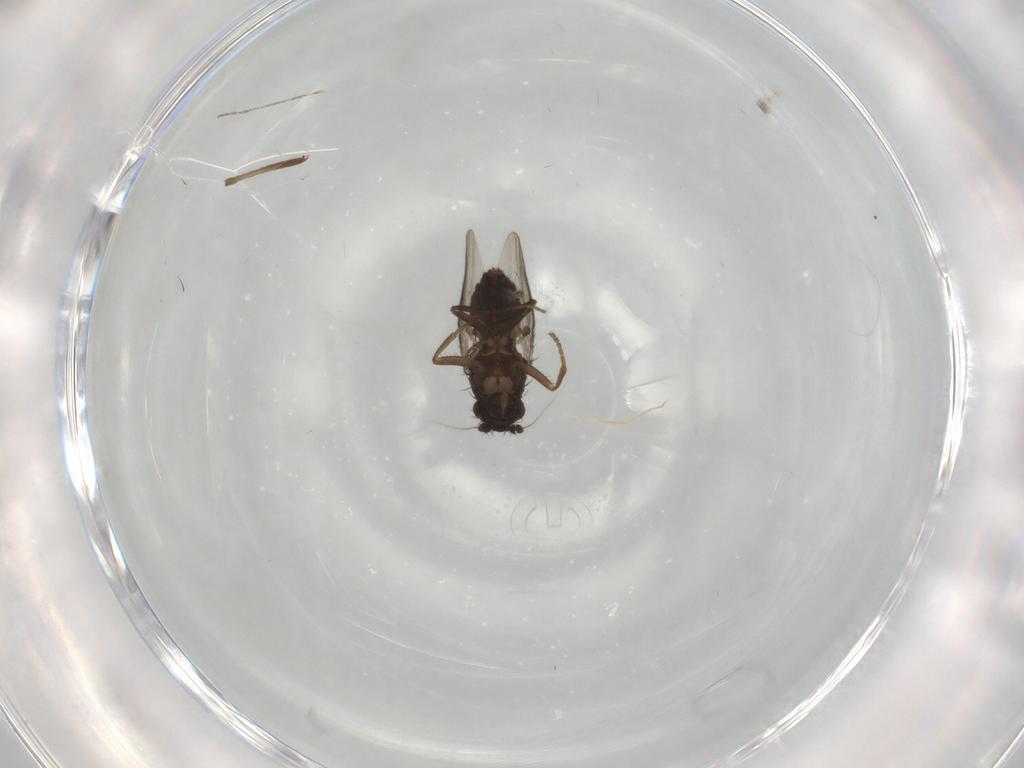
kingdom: Animalia
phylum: Arthropoda
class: Insecta
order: Diptera
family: Sphaeroceridae
